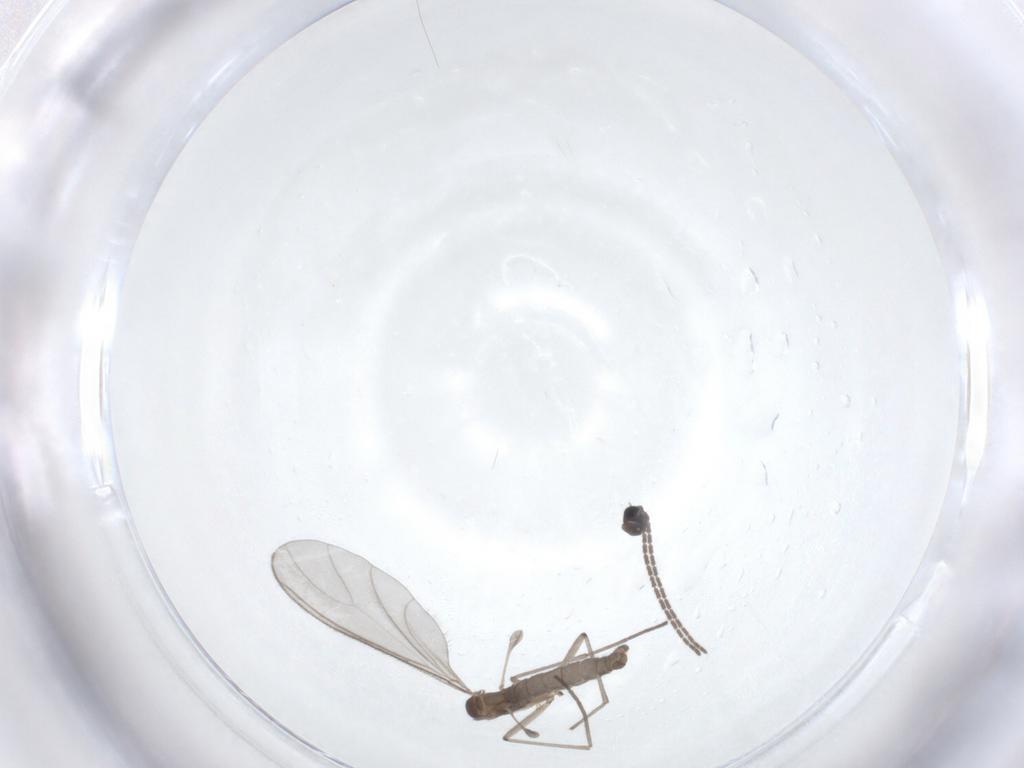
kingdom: Animalia
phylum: Arthropoda
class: Insecta
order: Diptera
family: Sciaridae
